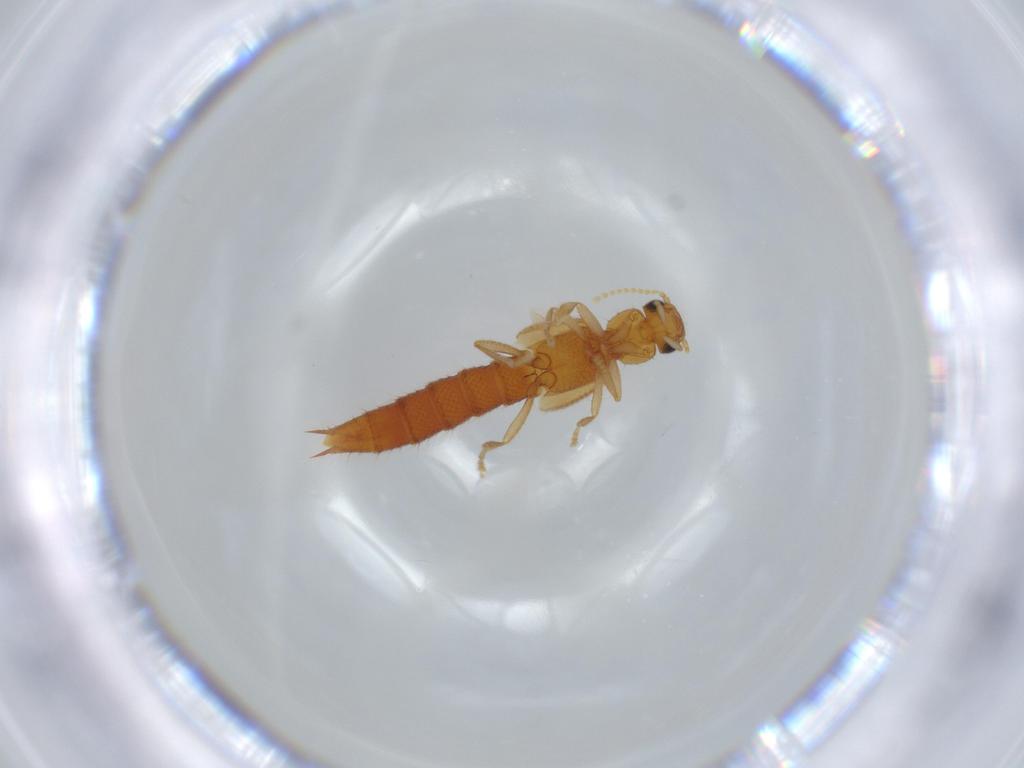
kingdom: Animalia
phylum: Arthropoda
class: Insecta
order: Coleoptera
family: Staphylinidae
